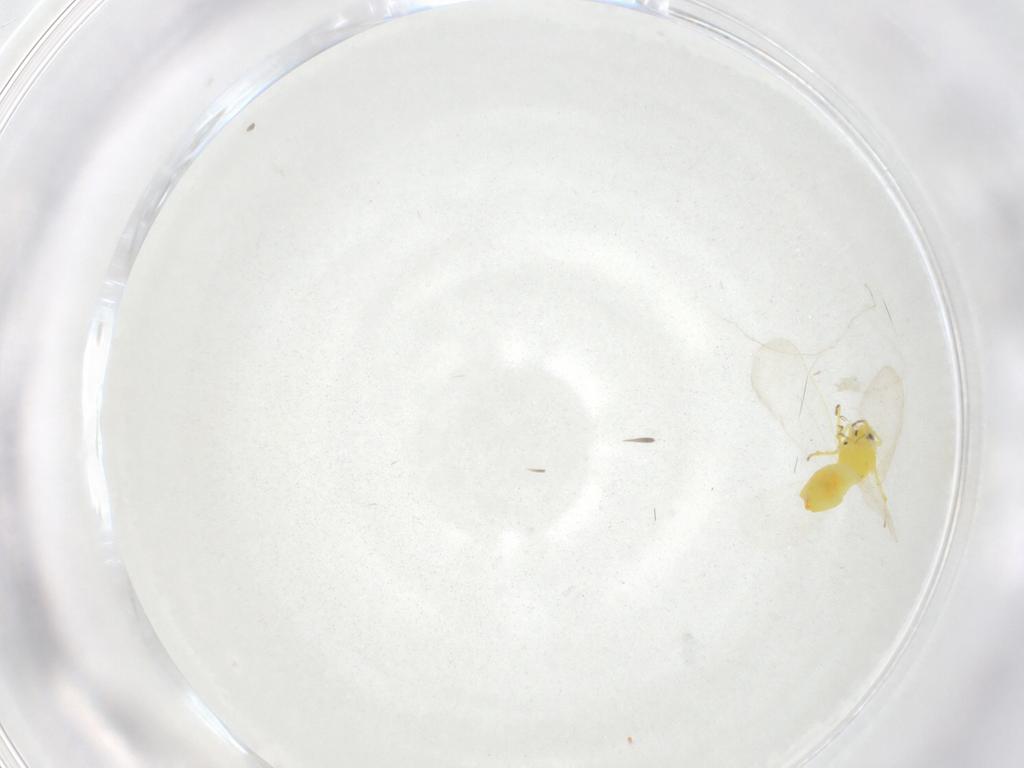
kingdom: Animalia
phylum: Arthropoda
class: Insecta
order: Hemiptera
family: Aleyrodidae
